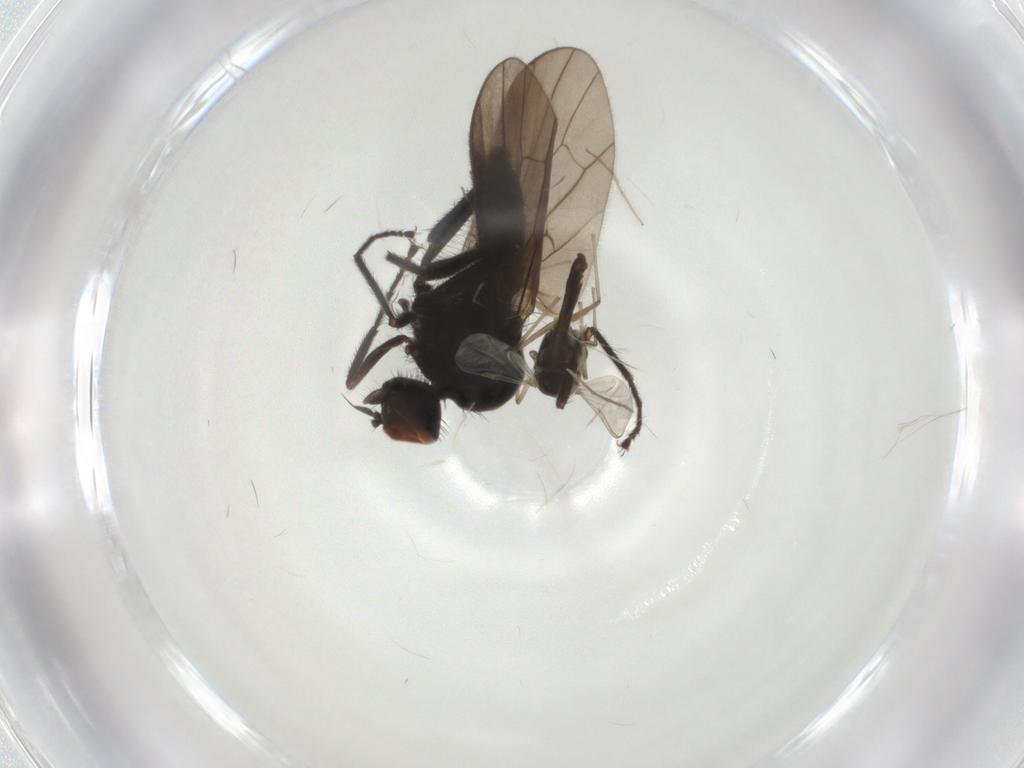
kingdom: Animalia
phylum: Arthropoda
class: Insecta
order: Diptera
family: Chironomidae
